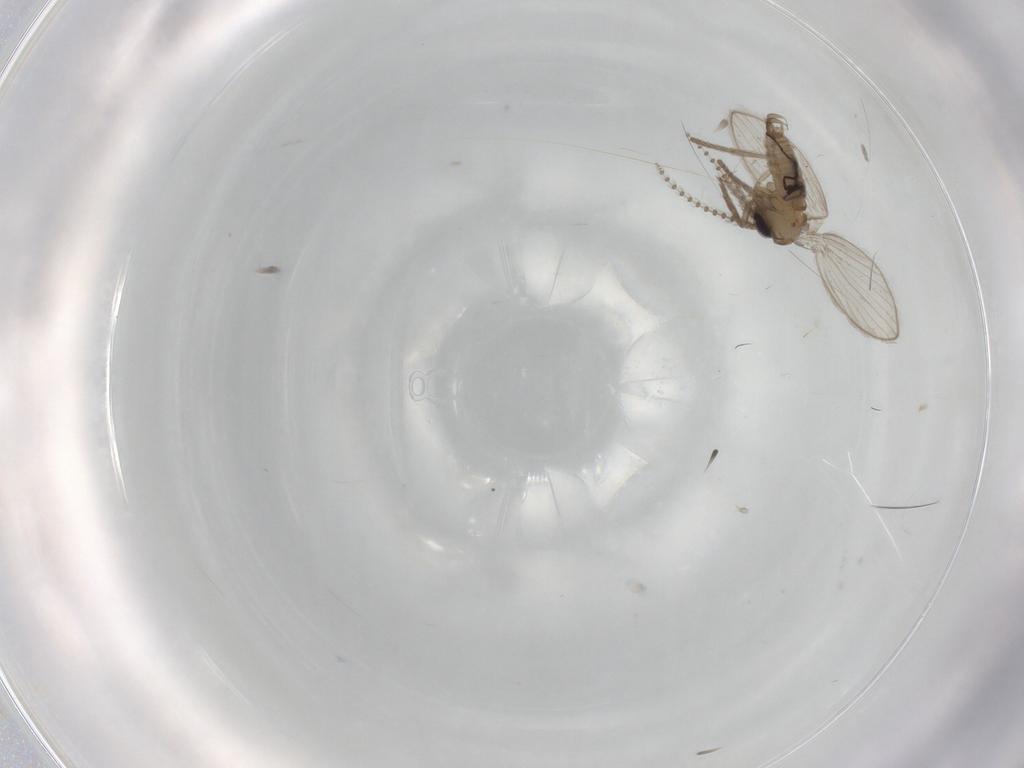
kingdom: Animalia
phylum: Arthropoda
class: Insecta
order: Diptera
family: Psychodidae
